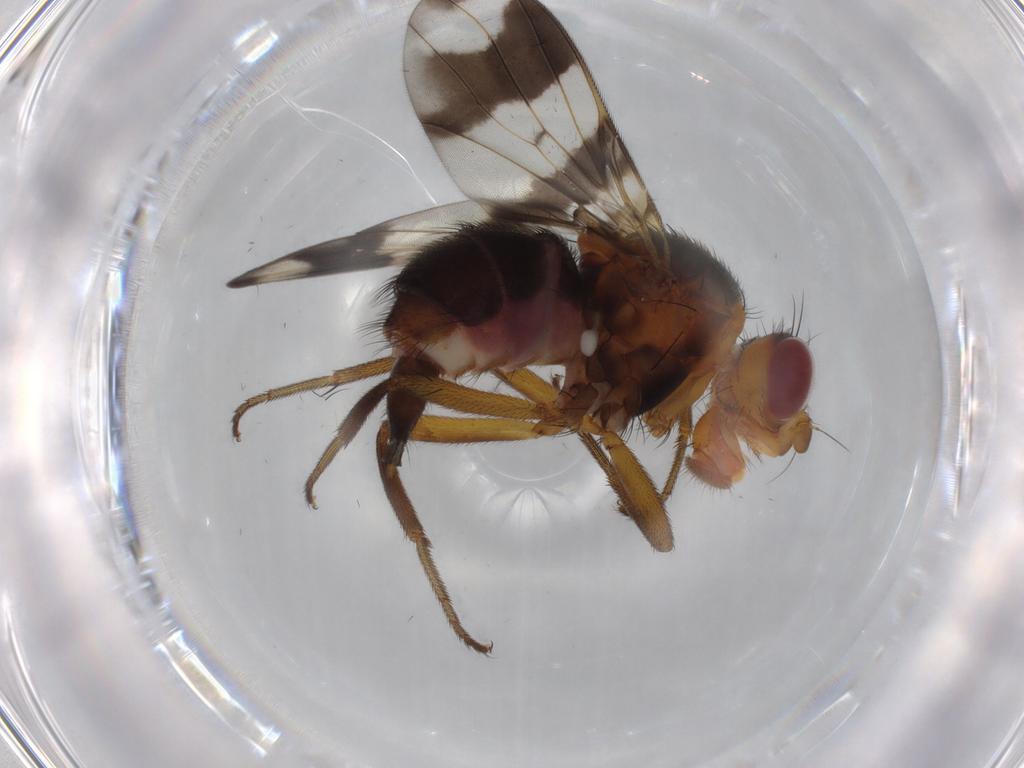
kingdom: Animalia
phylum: Arthropoda
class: Insecta
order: Diptera
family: Richardiidae
